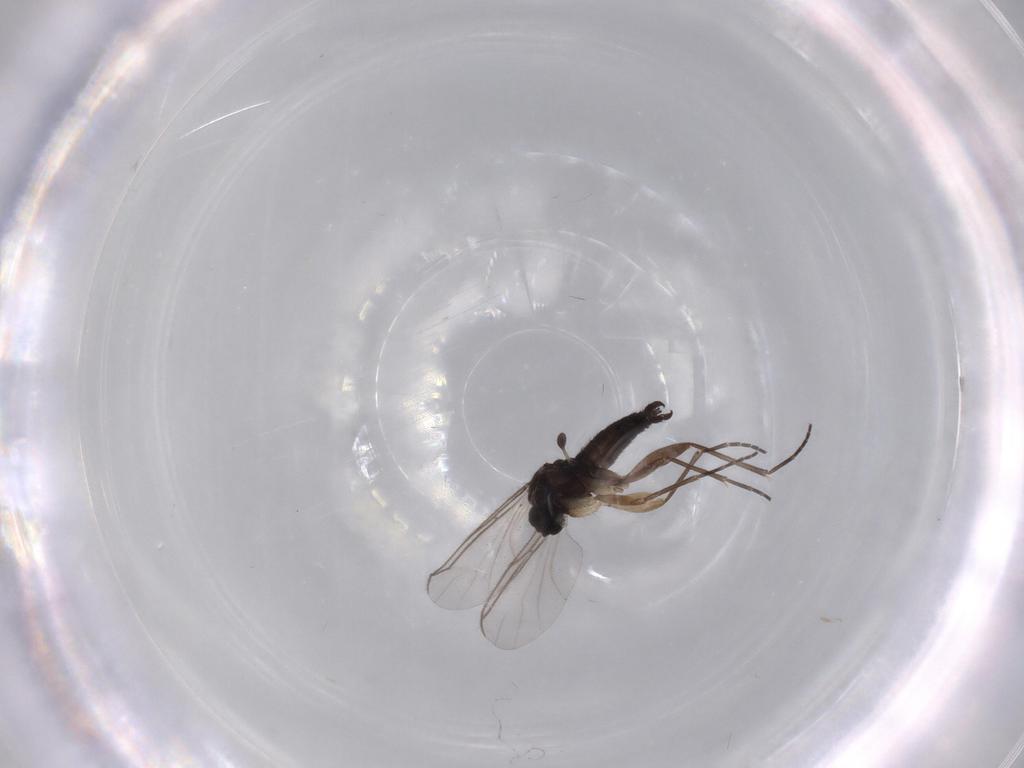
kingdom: Animalia
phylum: Arthropoda
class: Insecta
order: Diptera
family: Sciaridae
